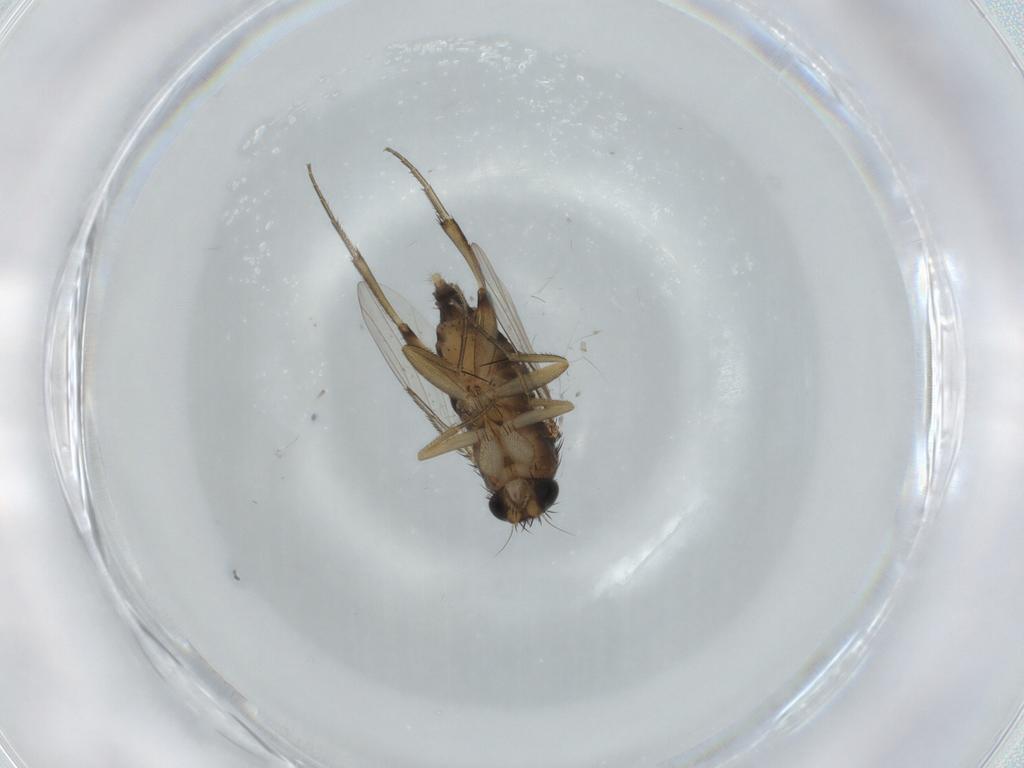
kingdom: Animalia
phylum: Arthropoda
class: Insecta
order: Diptera
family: Phoridae
